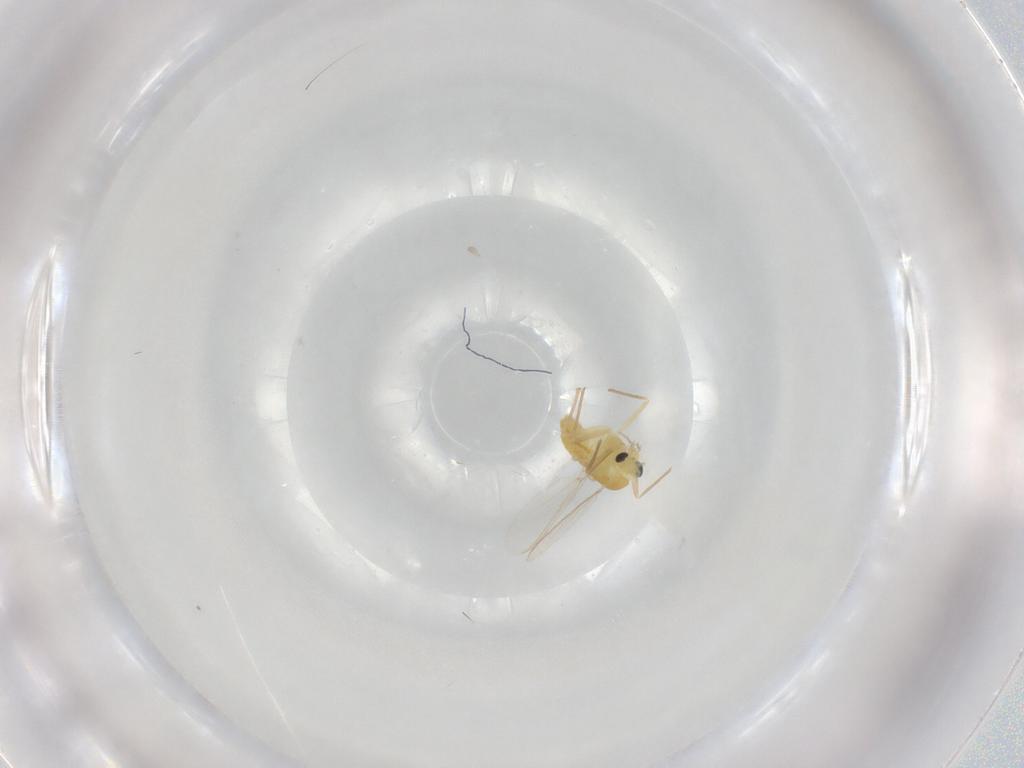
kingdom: Animalia
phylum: Arthropoda
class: Insecta
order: Diptera
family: Chironomidae
